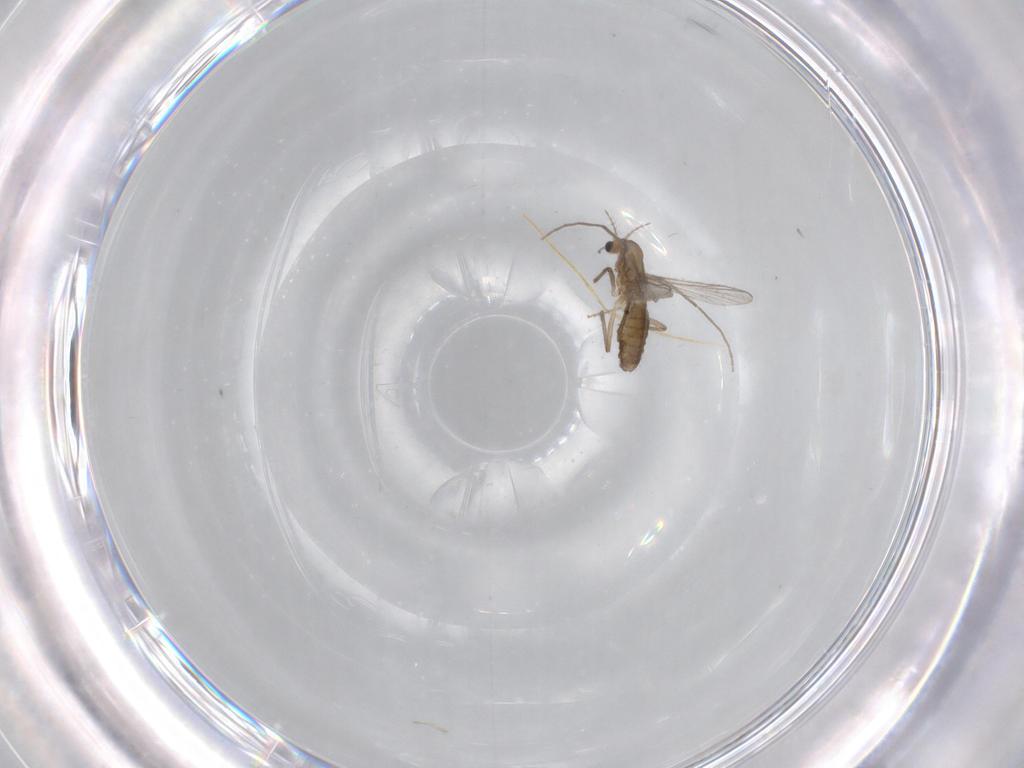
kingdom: Animalia
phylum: Arthropoda
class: Insecta
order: Diptera
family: Chironomidae
